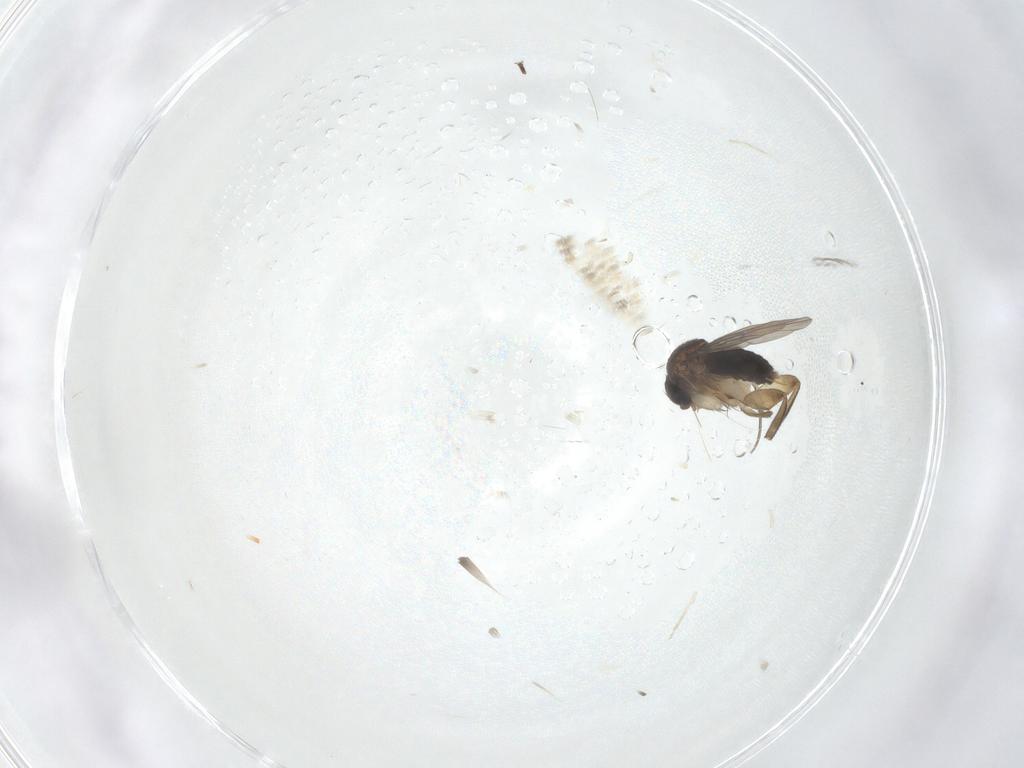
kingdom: Animalia
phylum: Arthropoda
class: Insecta
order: Diptera
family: Phoridae
